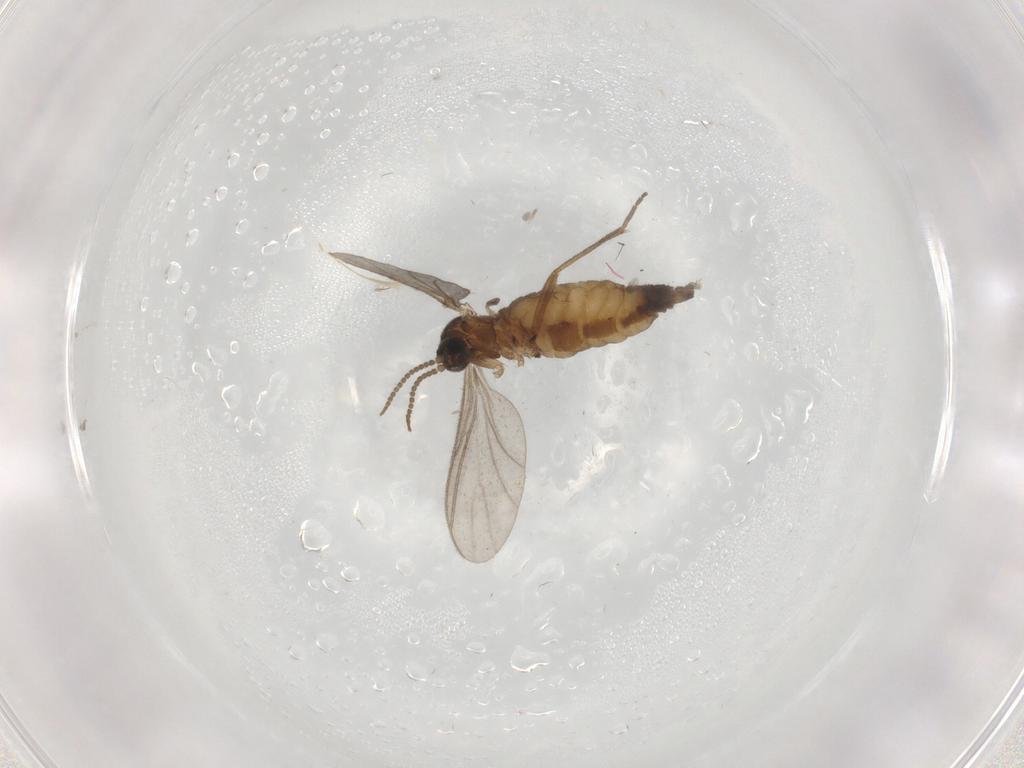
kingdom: Animalia
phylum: Arthropoda
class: Insecta
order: Diptera
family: Sciaridae
